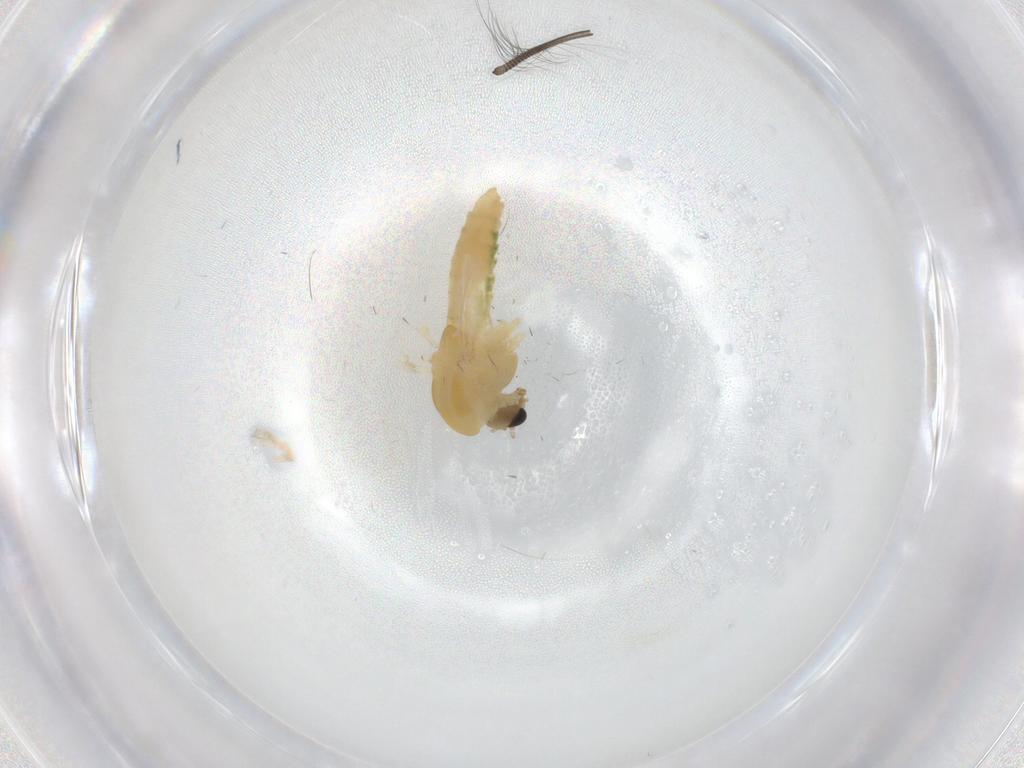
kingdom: Animalia
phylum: Arthropoda
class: Insecta
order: Diptera
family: Chironomidae
